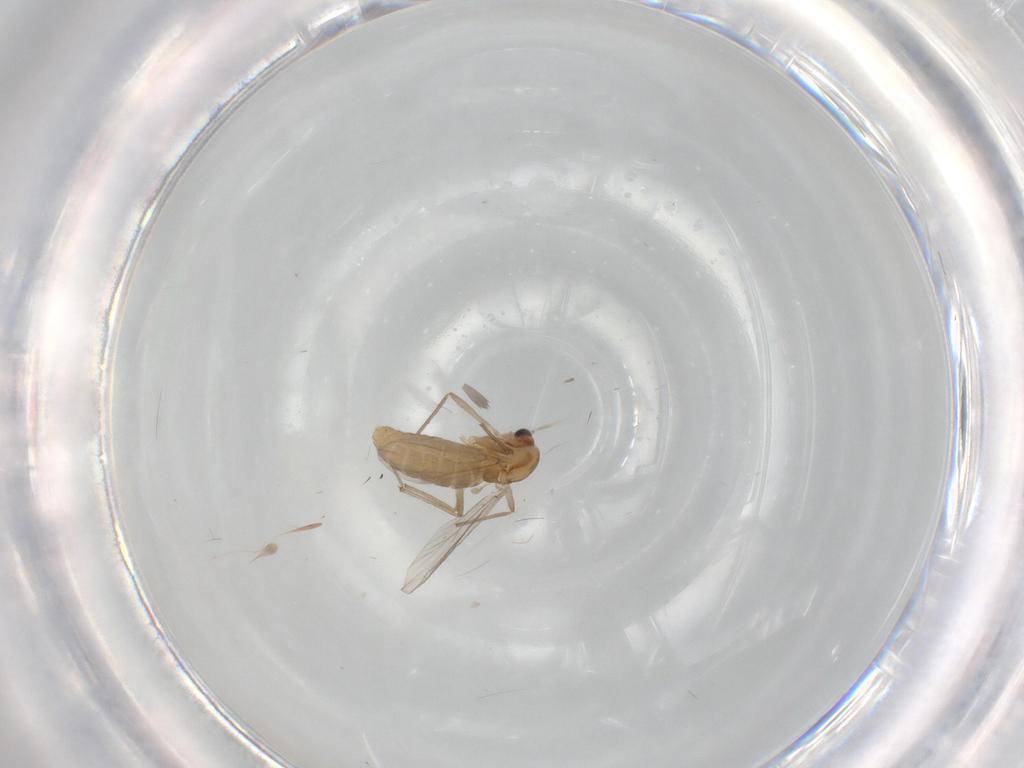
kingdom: Animalia
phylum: Arthropoda
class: Insecta
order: Diptera
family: Chironomidae
